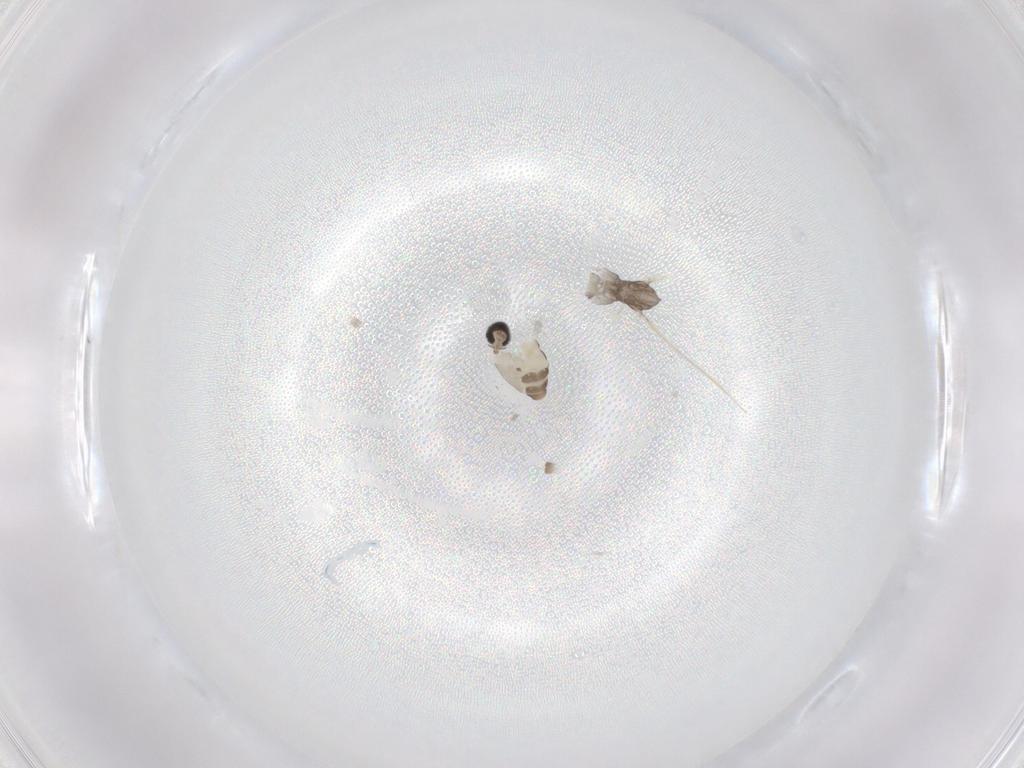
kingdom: Animalia
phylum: Arthropoda
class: Insecta
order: Diptera
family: Cecidomyiidae
